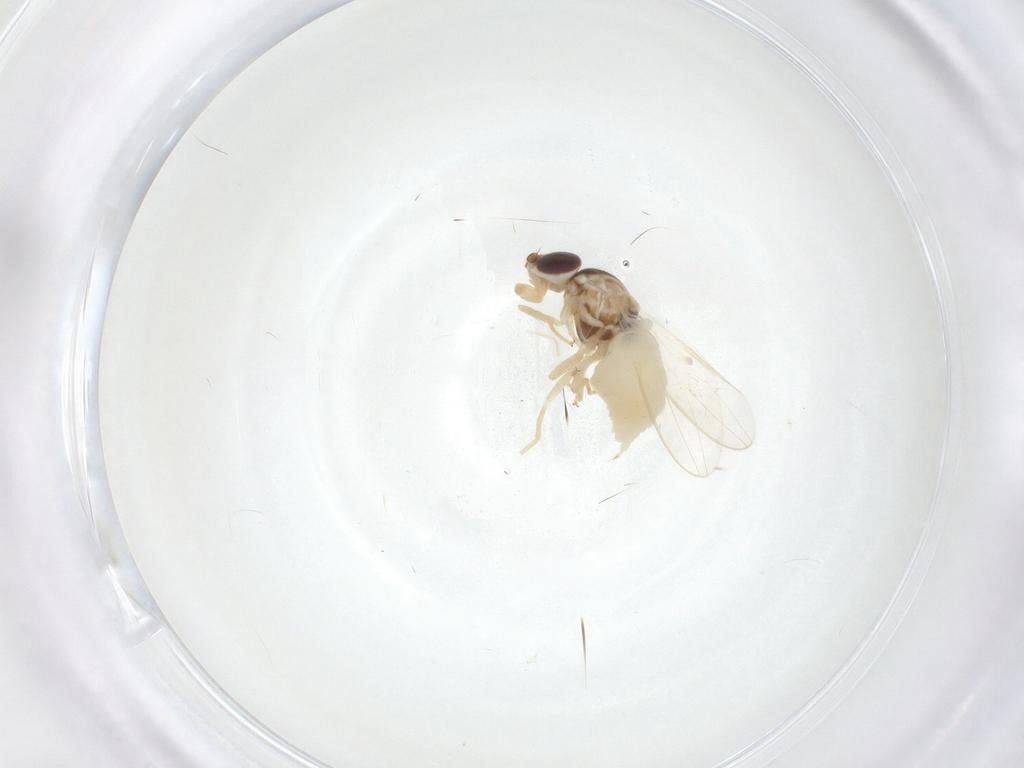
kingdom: Animalia
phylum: Arthropoda
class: Insecta
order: Diptera
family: Chloropidae
